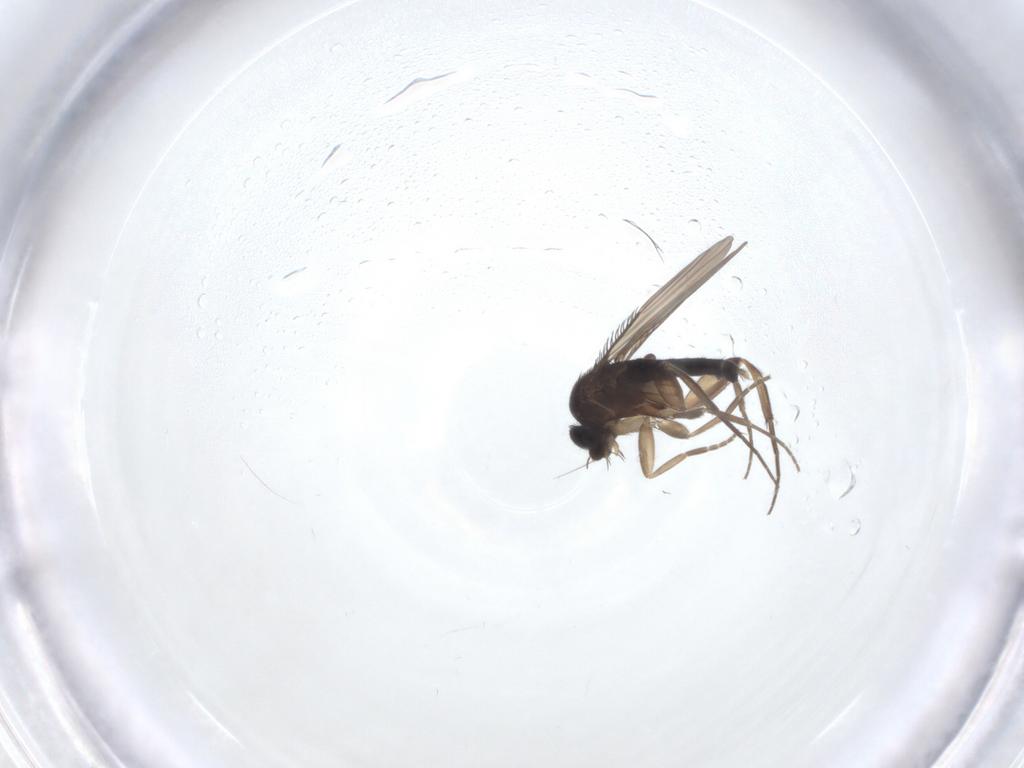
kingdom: Animalia
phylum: Arthropoda
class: Insecta
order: Diptera
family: Phoridae
